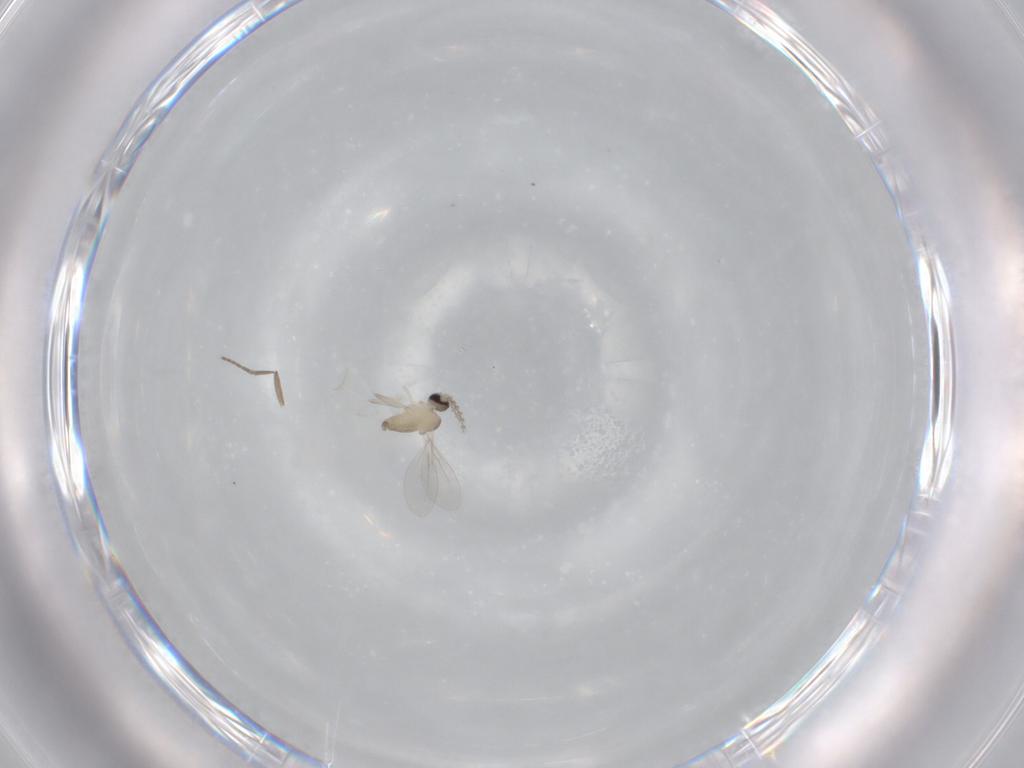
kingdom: Animalia
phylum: Arthropoda
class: Insecta
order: Diptera
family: Cecidomyiidae
